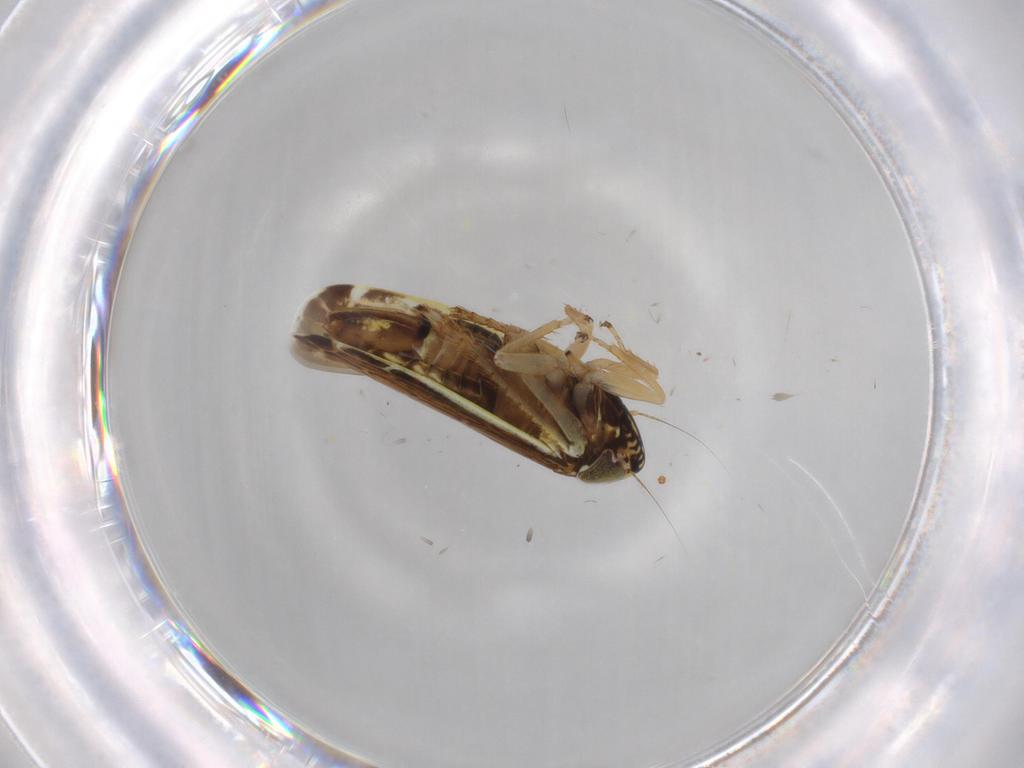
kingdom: Animalia
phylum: Arthropoda
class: Insecta
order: Hemiptera
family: Cicadellidae
